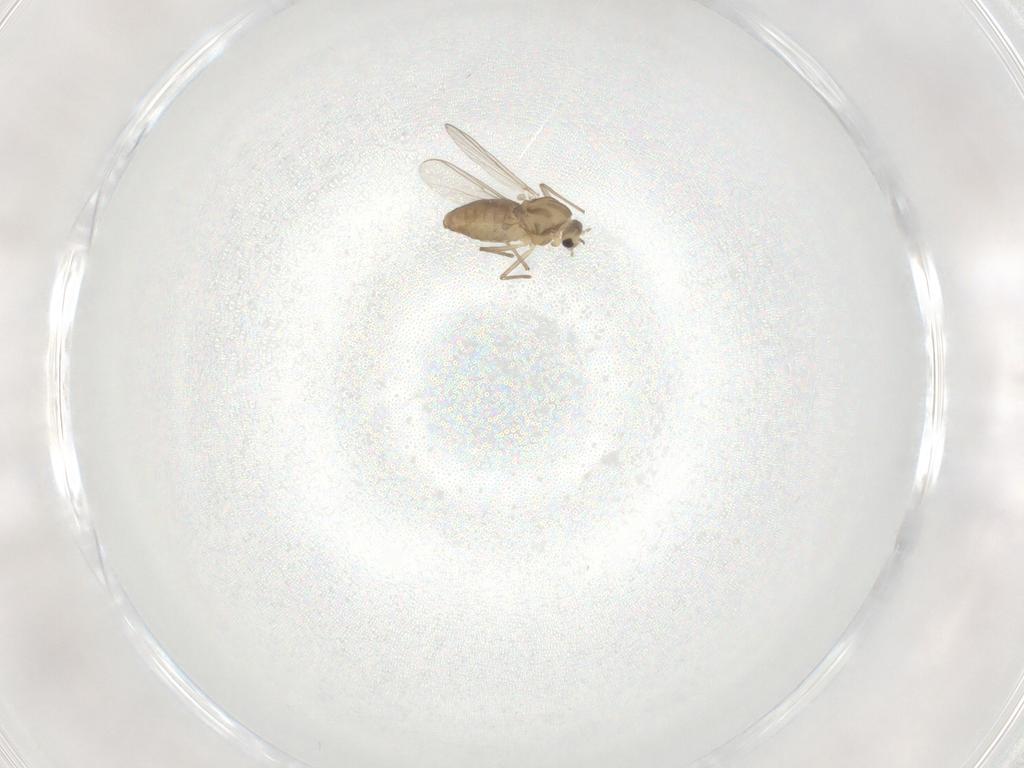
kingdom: Animalia
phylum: Arthropoda
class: Insecta
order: Diptera
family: Chironomidae
